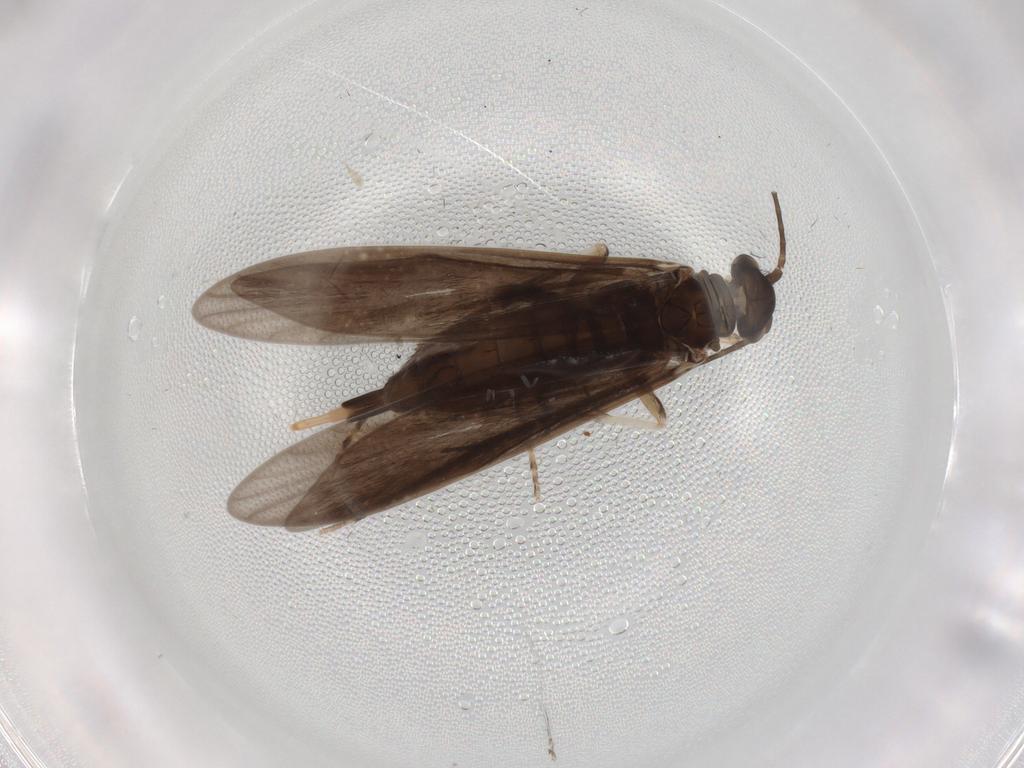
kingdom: Animalia
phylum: Arthropoda
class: Insecta
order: Trichoptera
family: Xiphocentronidae
